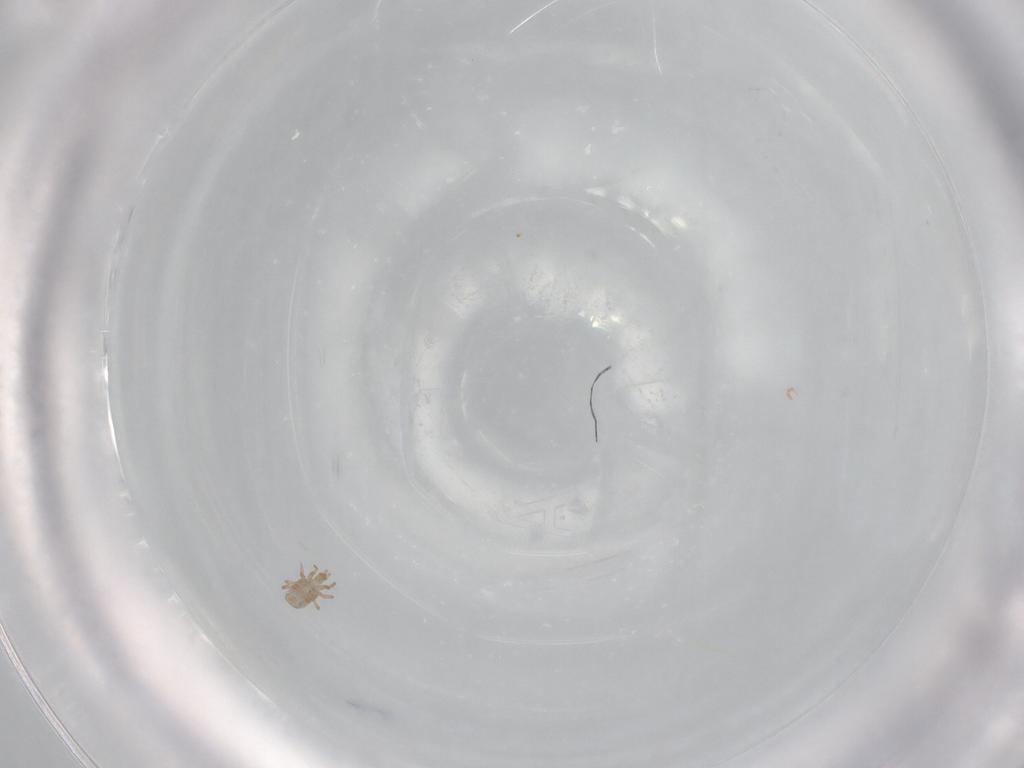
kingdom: Animalia
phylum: Arthropoda
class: Arachnida
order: Mesostigmata
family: Ascidae
